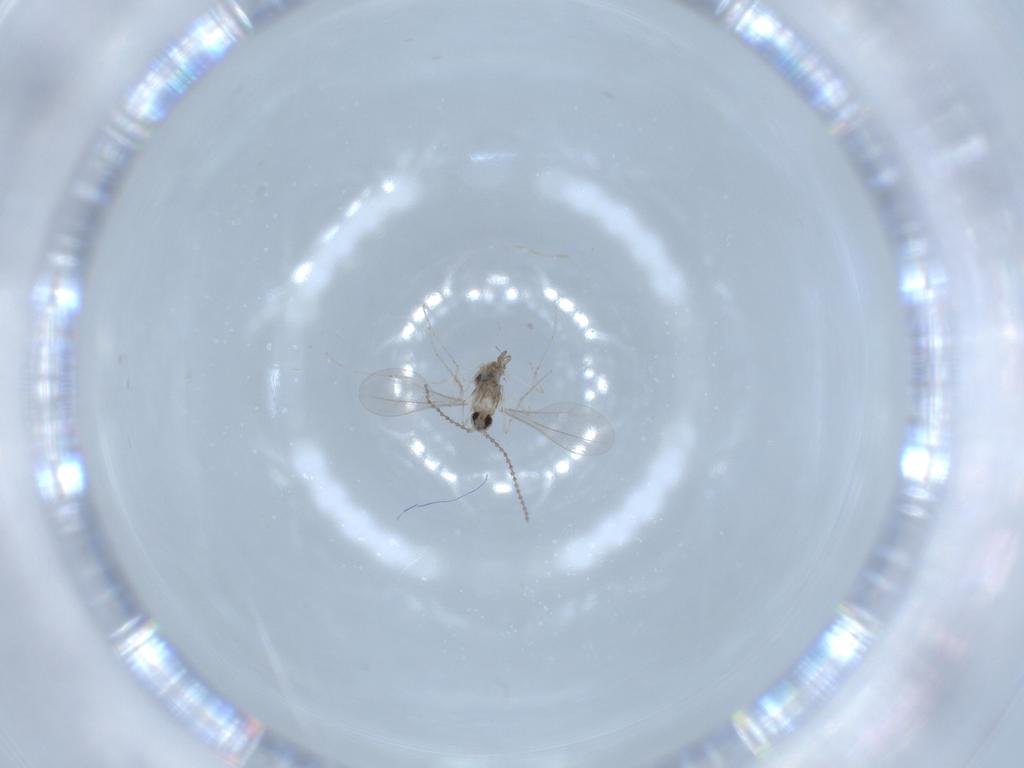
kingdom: Animalia
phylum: Arthropoda
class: Insecta
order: Diptera
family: Cecidomyiidae
